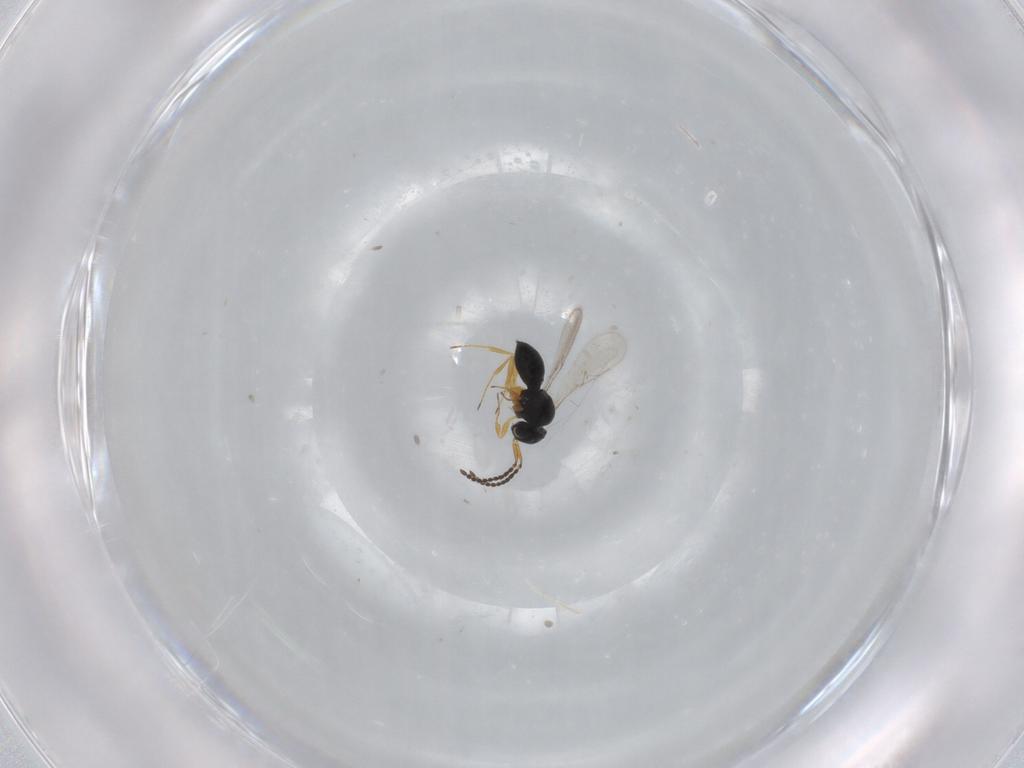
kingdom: Animalia
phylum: Arthropoda
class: Insecta
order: Hymenoptera
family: Scelionidae
